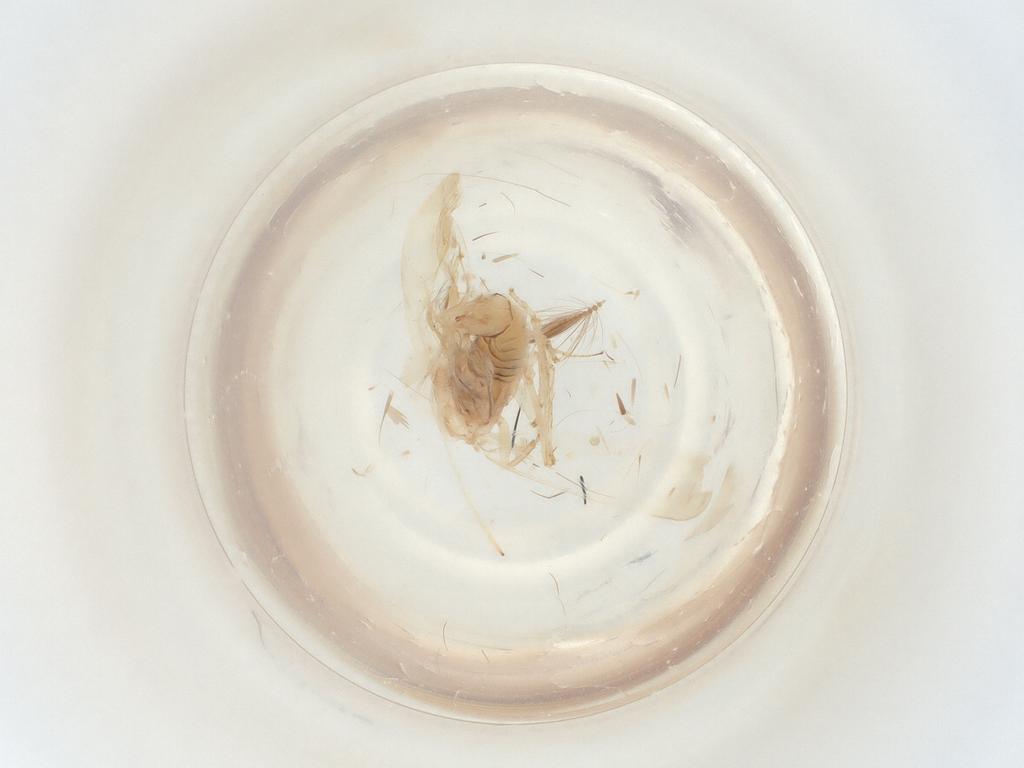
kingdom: Animalia
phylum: Arthropoda
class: Insecta
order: Hemiptera
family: Cicadellidae
